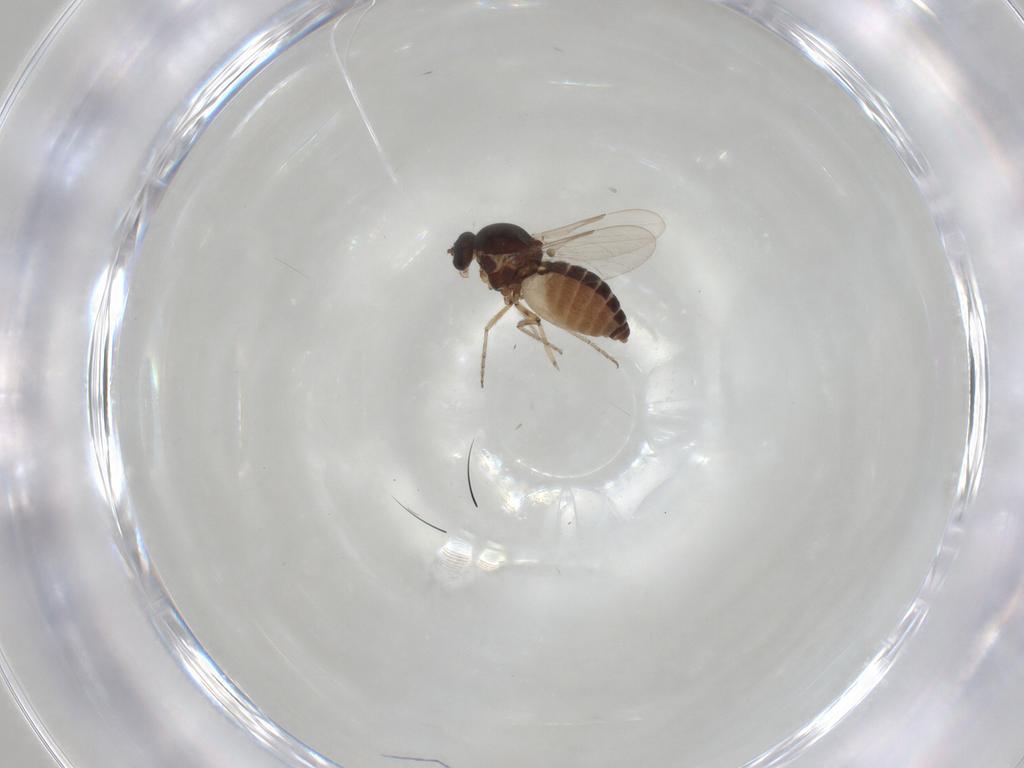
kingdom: Animalia
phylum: Arthropoda
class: Insecta
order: Diptera
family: Ceratopogonidae
